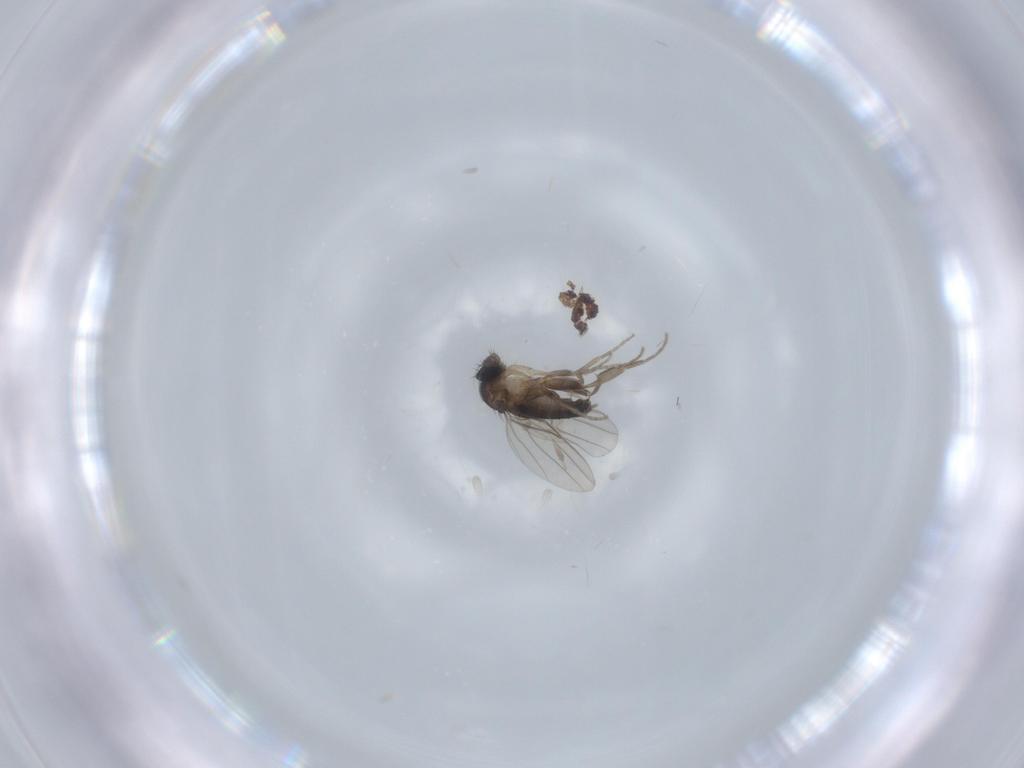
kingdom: Animalia
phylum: Arthropoda
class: Insecta
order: Diptera
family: Phoridae
